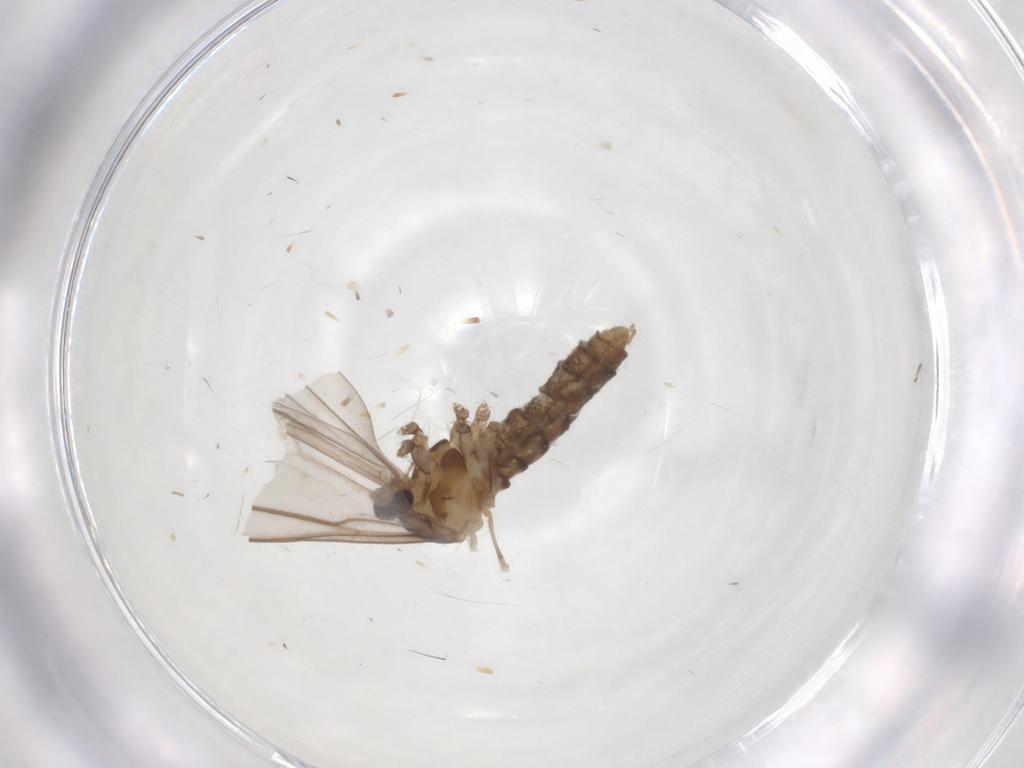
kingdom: Animalia
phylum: Arthropoda
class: Insecta
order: Diptera
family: Cecidomyiidae
